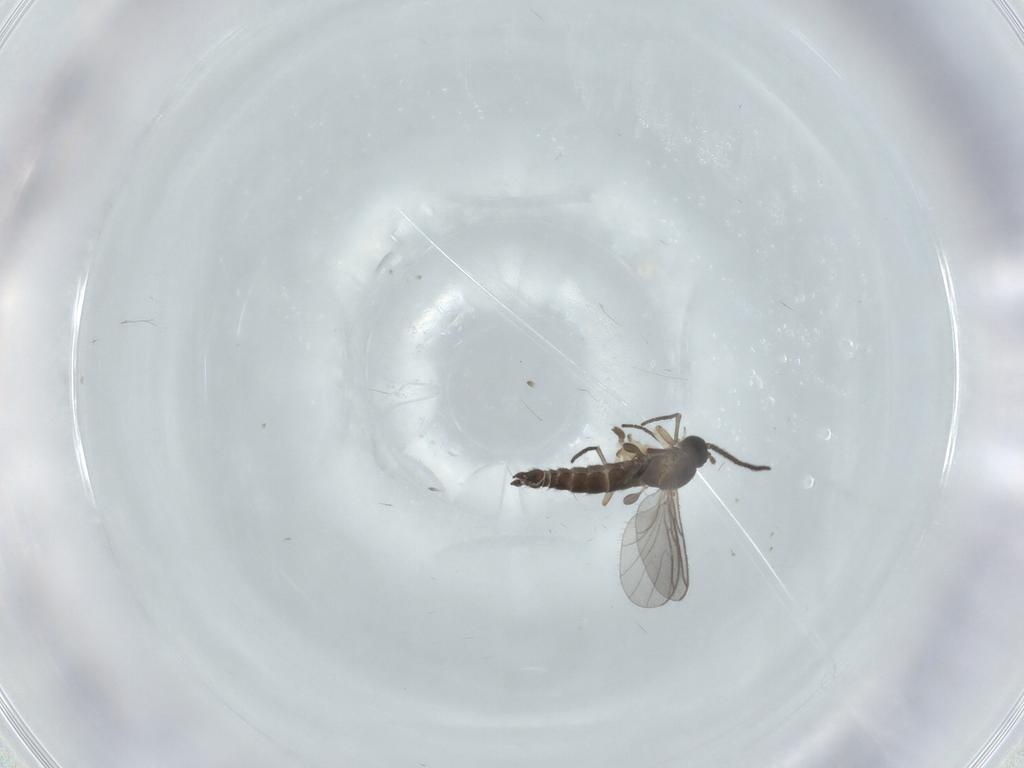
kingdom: Animalia
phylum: Arthropoda
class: Insecta
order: Diptera
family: Sciaridae
